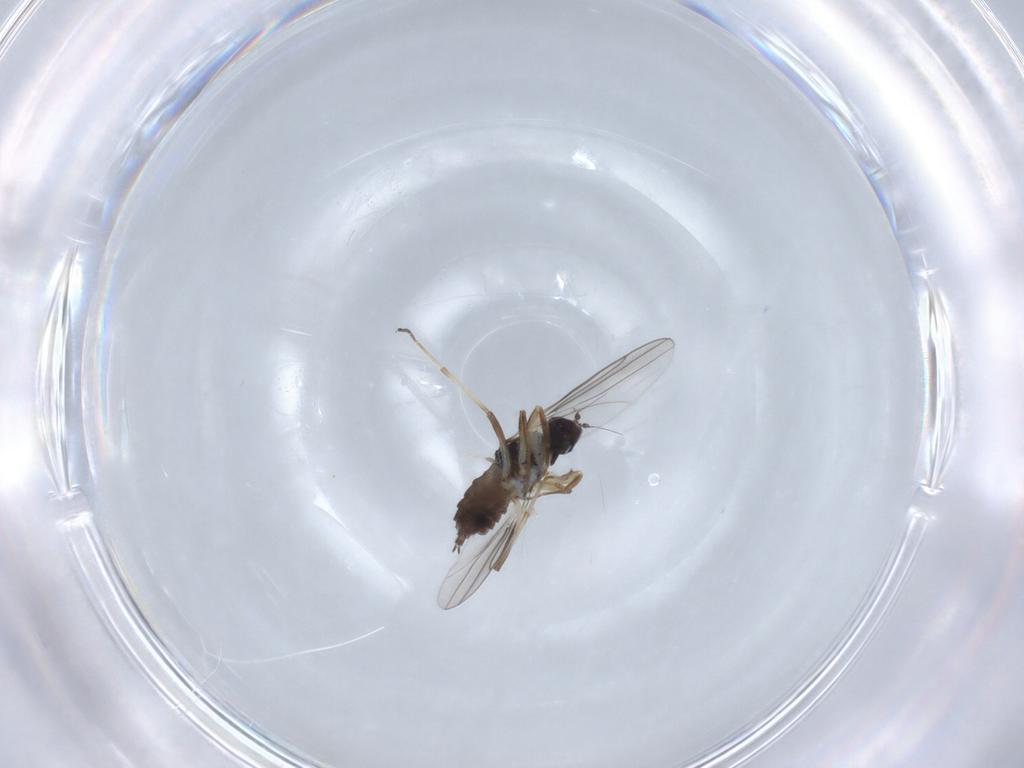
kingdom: Animalia
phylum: Arthropoda
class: Insecta
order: Diptera
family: Hybotidae
